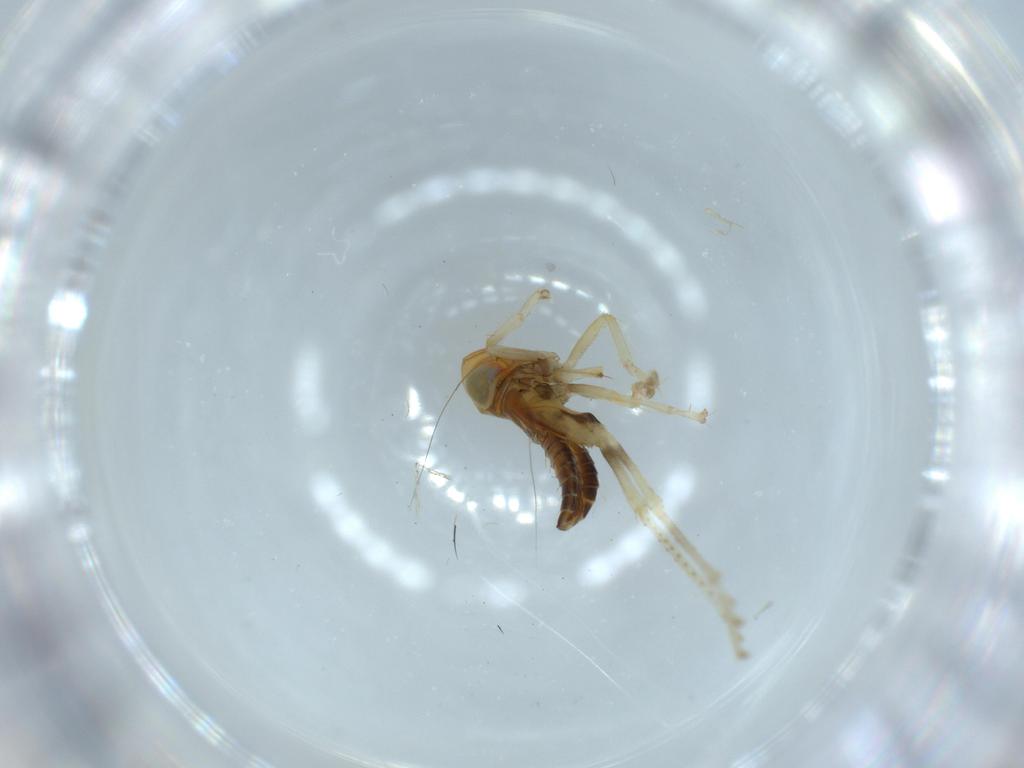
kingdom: Animalia
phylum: Arthropoda
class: Insecta
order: Hemiptera
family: Cicadellidae
